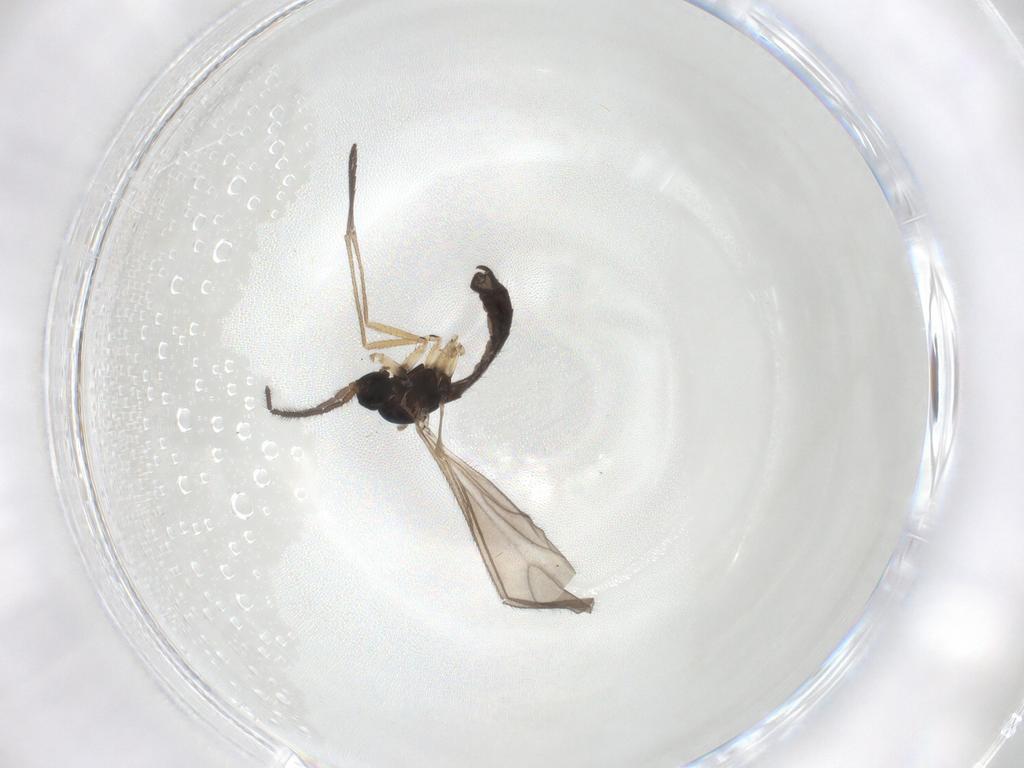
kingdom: Animalia
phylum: Arthropoda
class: Insecta
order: Diptera
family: Sciaridae
